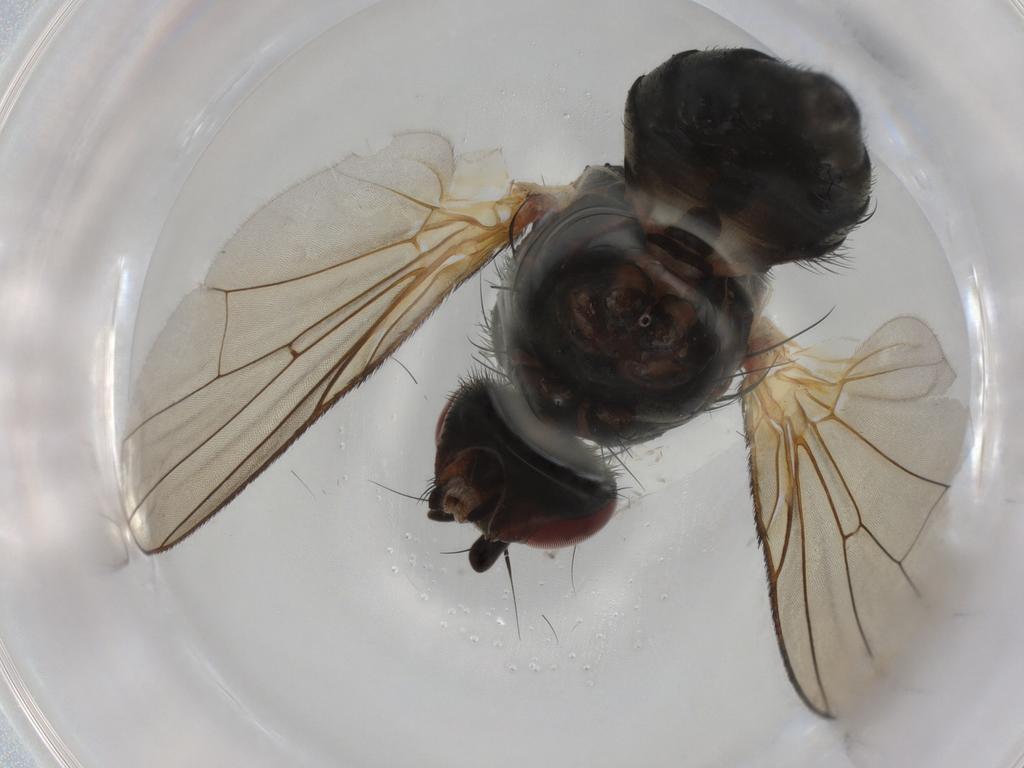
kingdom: Animalia
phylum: Arthropoda
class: Insecta
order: Diptera
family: Anthomyiidae
